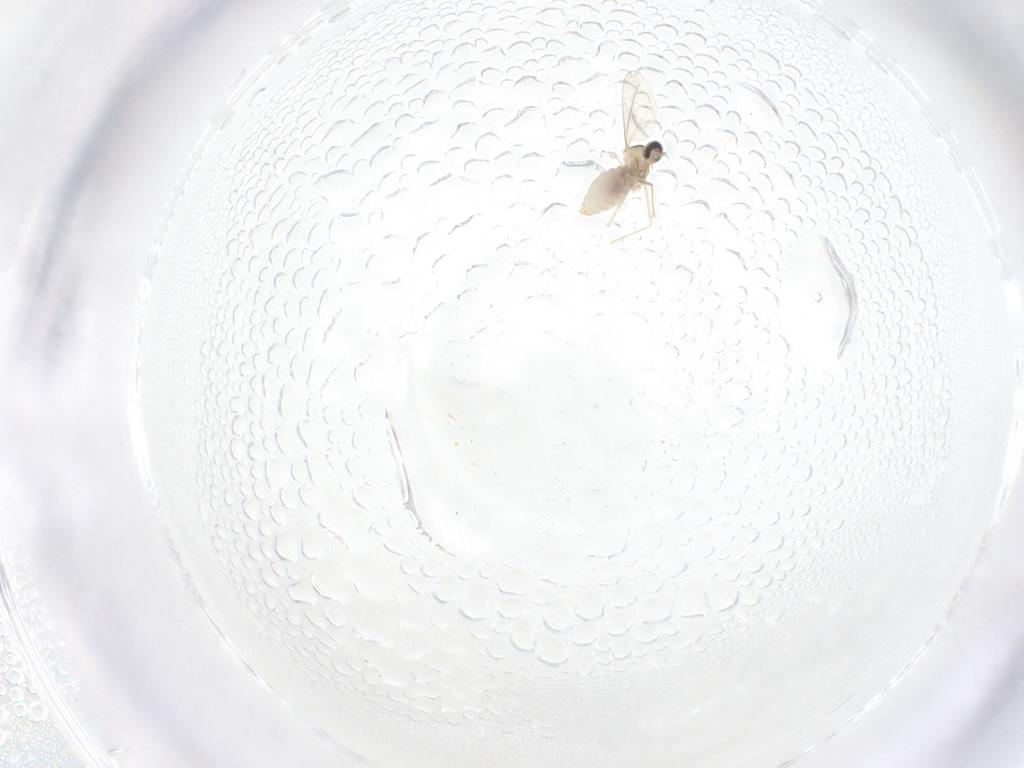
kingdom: Animalia
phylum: Arthropoda
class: Insecta
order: Diptera
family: Cecidomyiidae
